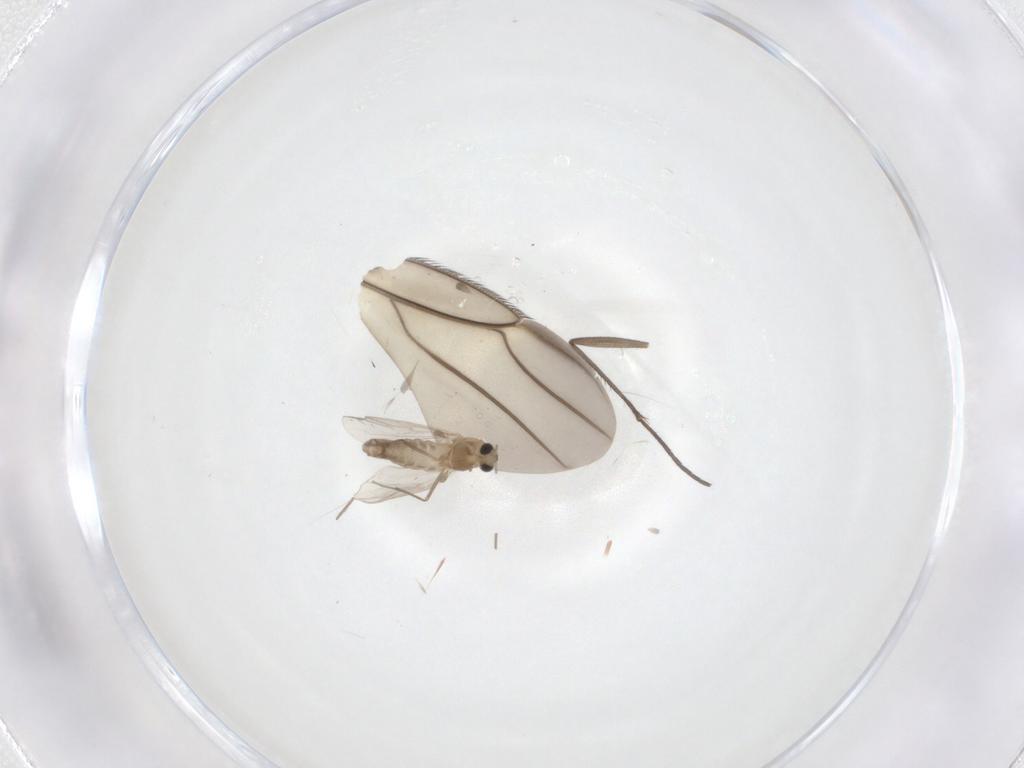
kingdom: Animalia
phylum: Arthropoda
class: Insecta
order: Diptera
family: Chironomidae
